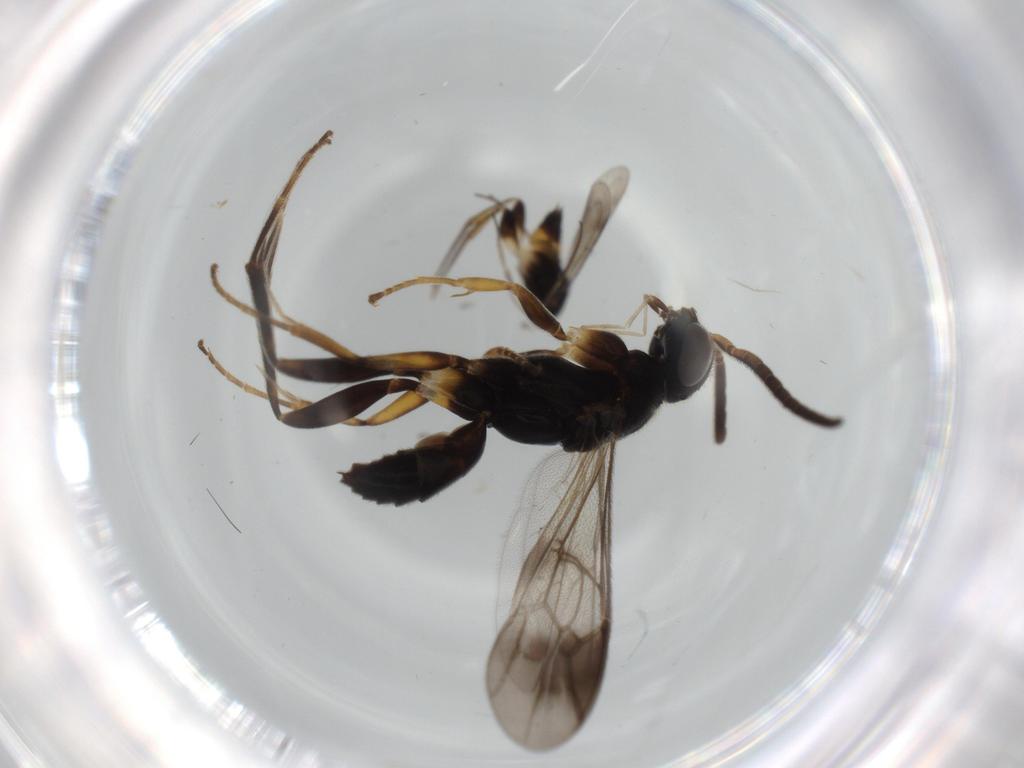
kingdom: Animalia
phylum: Arthropoda
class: Insecta
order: Hymenoptera
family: Pompilidae
